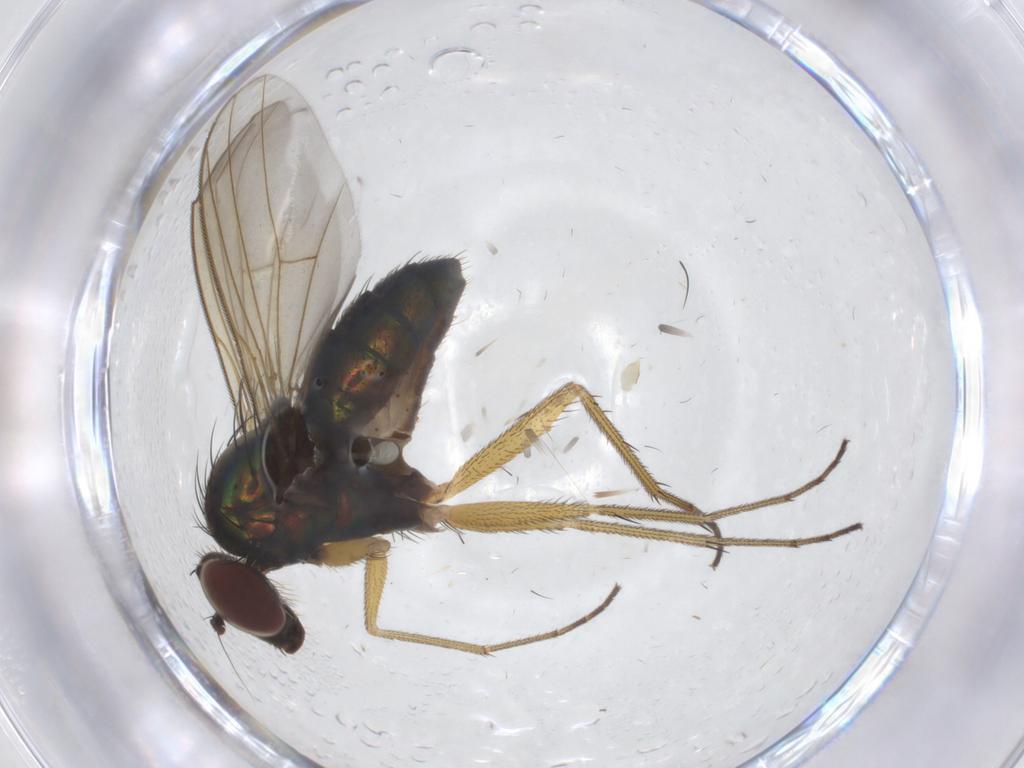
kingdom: Animalia
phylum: Arthropoda
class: Insecta
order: Diptera
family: Dolichopodidae
